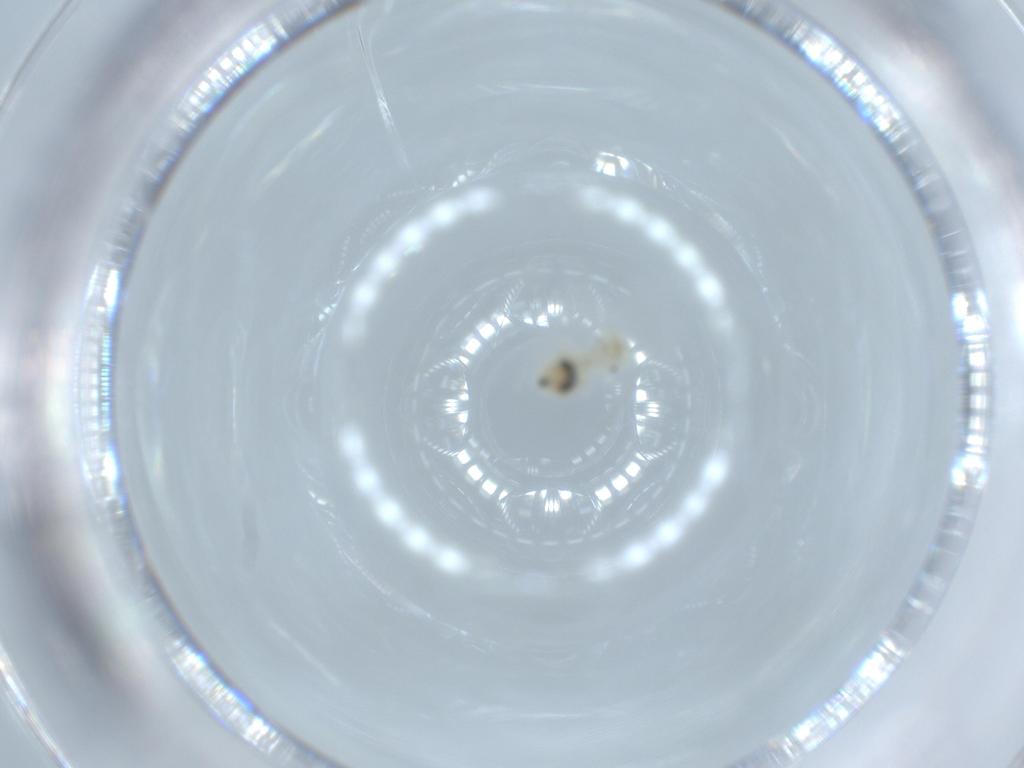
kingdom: Animalia
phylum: Arthropoda
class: Insecta
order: Psocodea
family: Caeciliusidae
